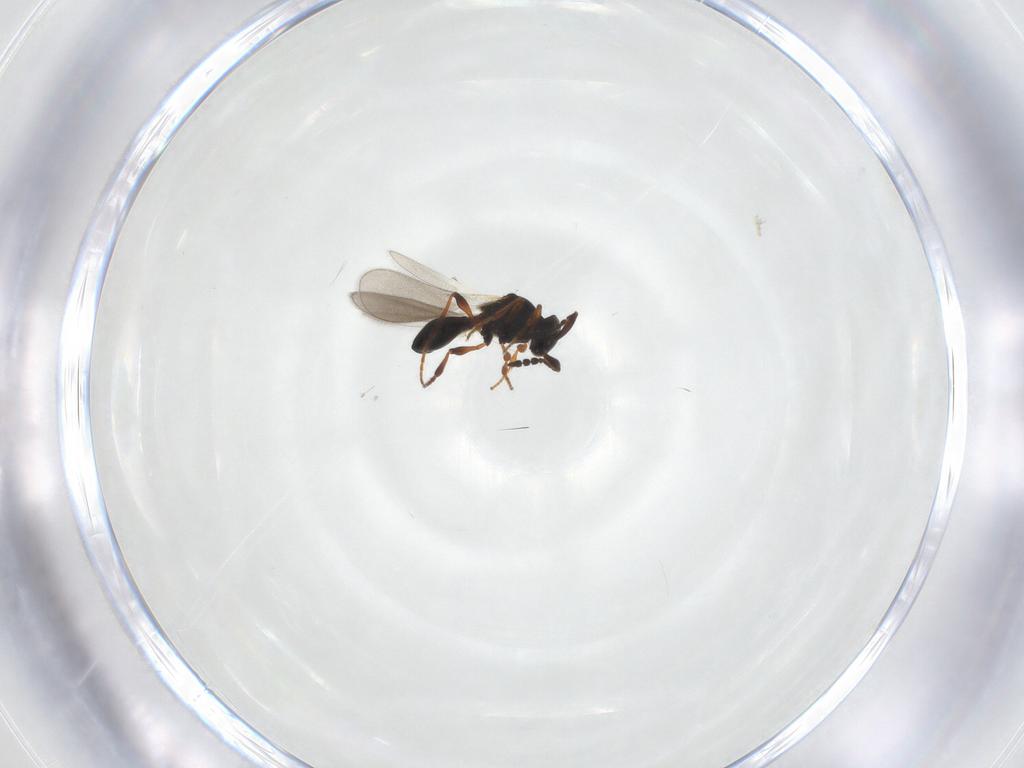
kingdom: Animalia
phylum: Arthropoda
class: Insecta
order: Hymenoptera
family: Platygastridae
